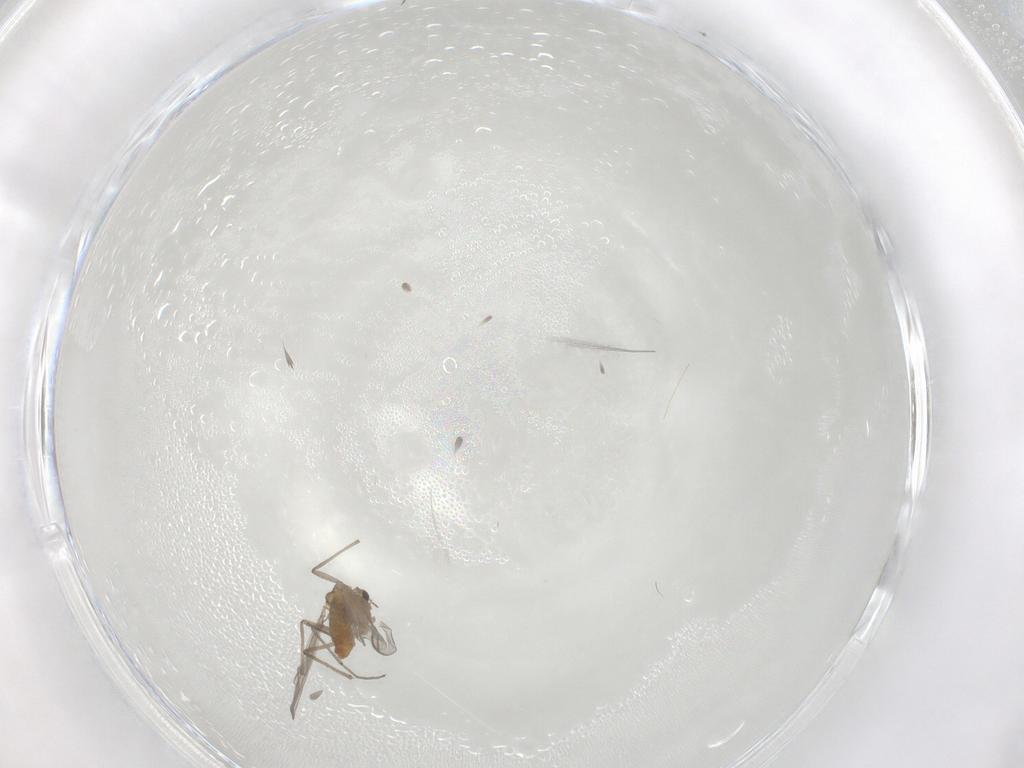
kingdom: Animalia
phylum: Arthropoda
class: Insecta
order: Diptera
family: Chironomidae
